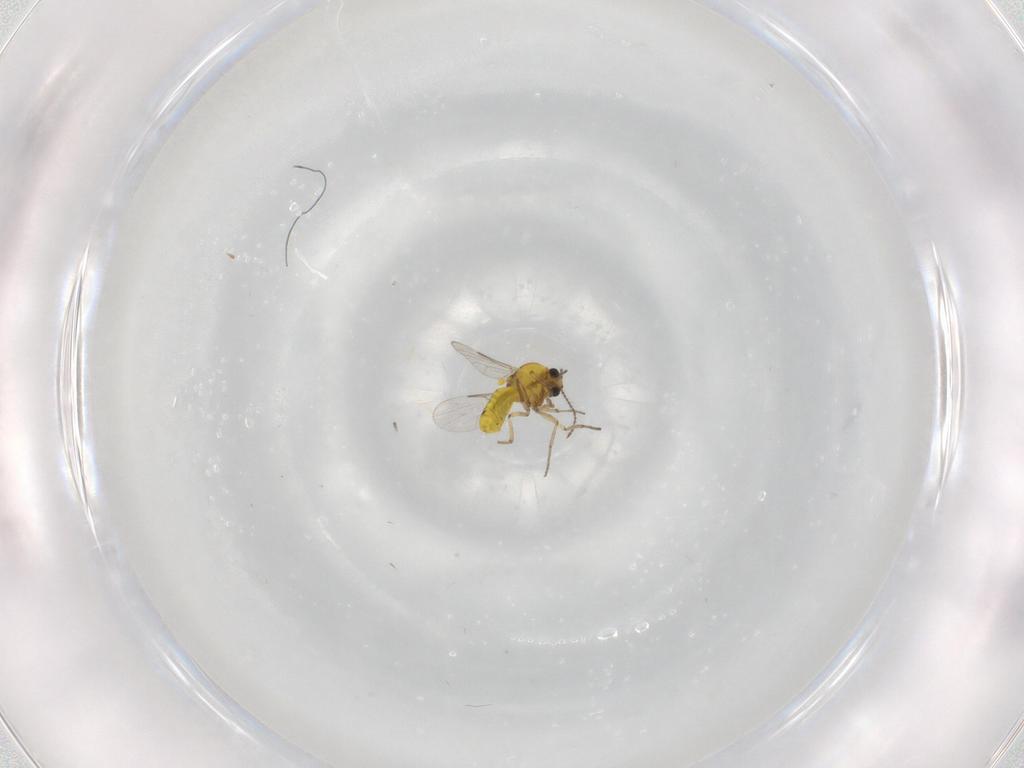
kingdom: Animalia
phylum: Arthropoda
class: Insecta
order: Diptera
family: Ceratopogonidae
